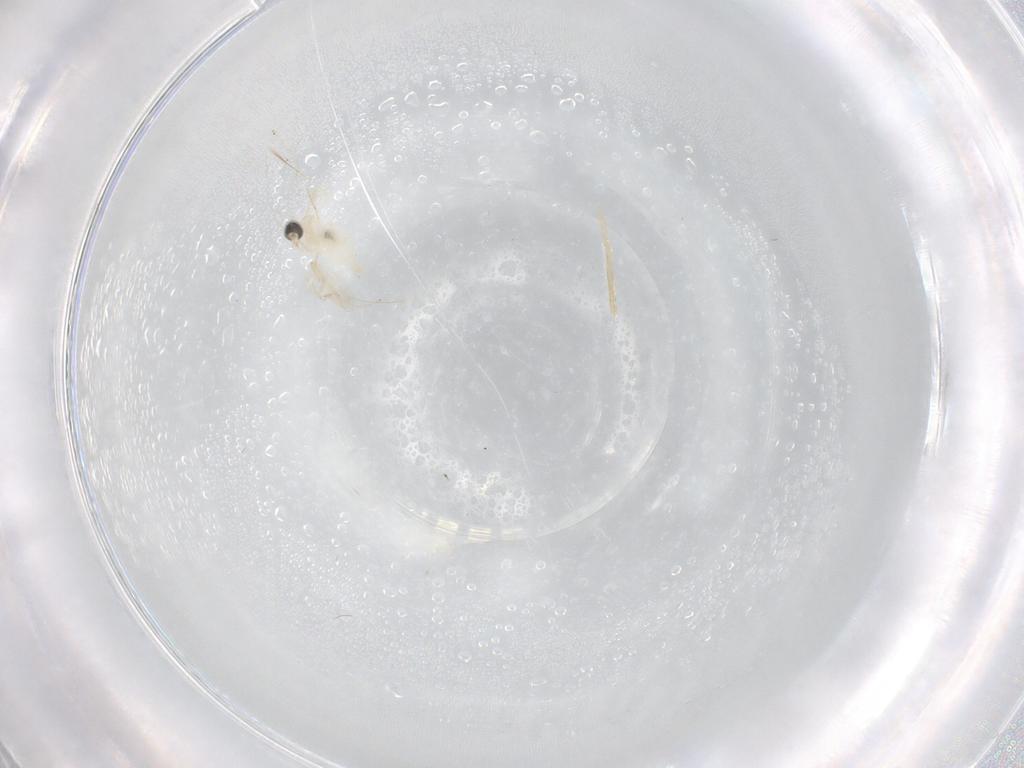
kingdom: Animalia
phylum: Arthropoda
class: Insecta
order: Diptera
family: Cecidomyiidae
